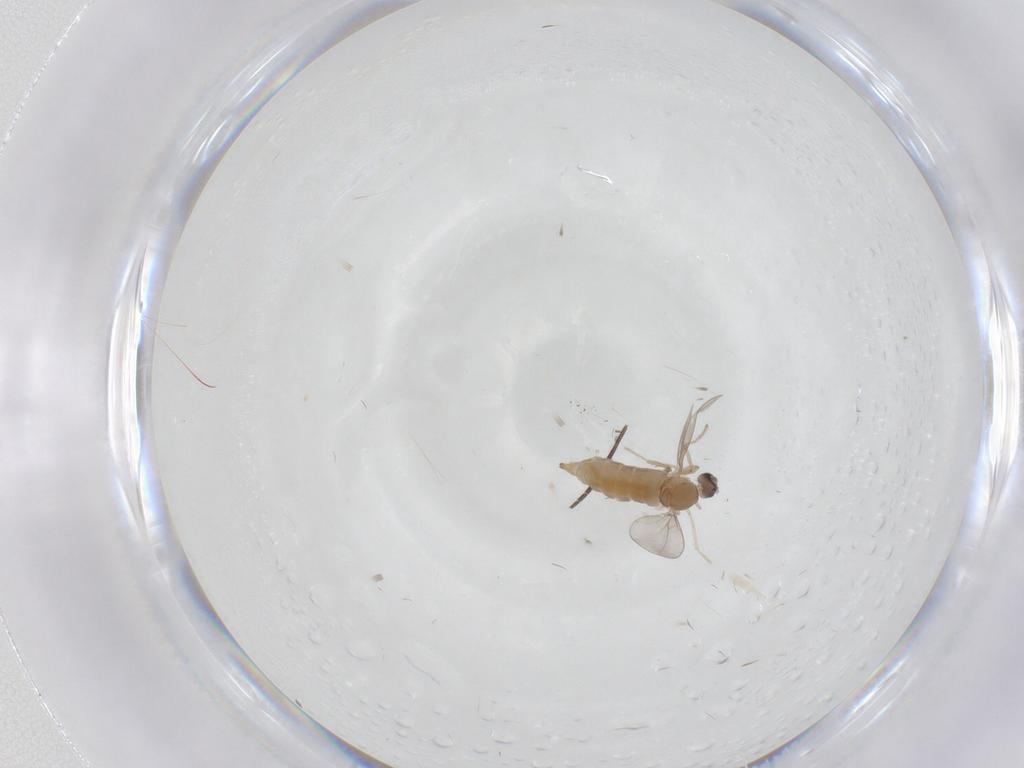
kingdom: Animalia
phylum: Arthropoda
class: Insecta
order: Diptera
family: Sciaridae
